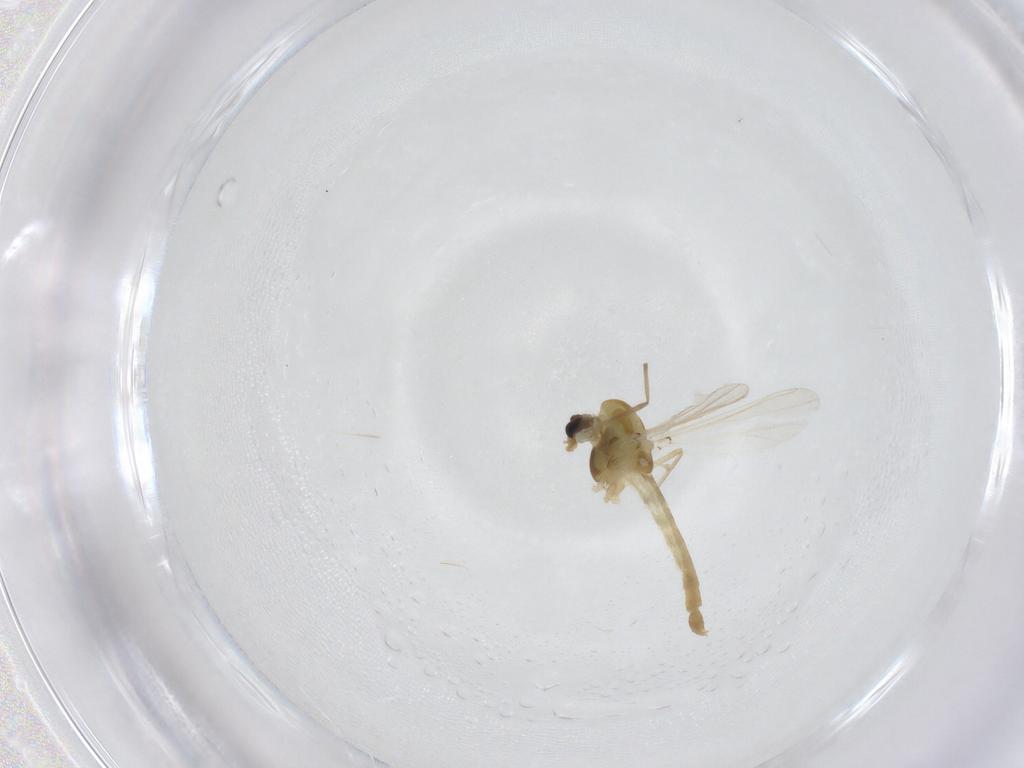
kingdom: Animalia
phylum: Arthropoda
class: Insecta
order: Diptera
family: Chironomidae
